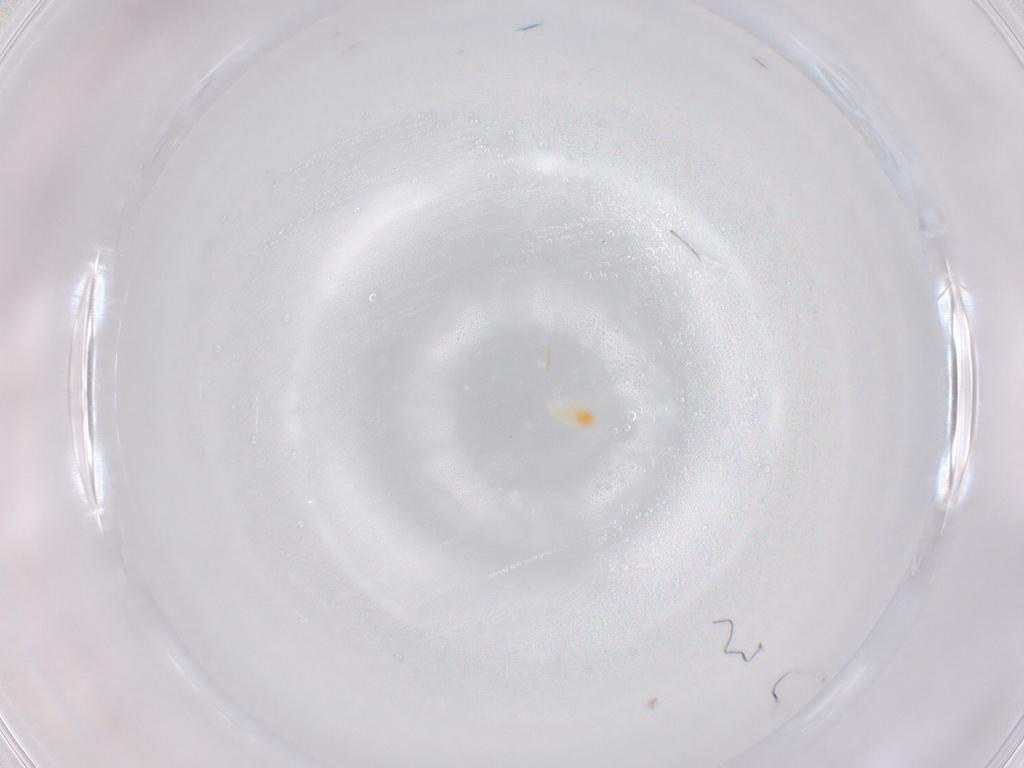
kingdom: Animalia
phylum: Arthropoda
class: Arachnida
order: Trombidiformes
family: Eupodidae
